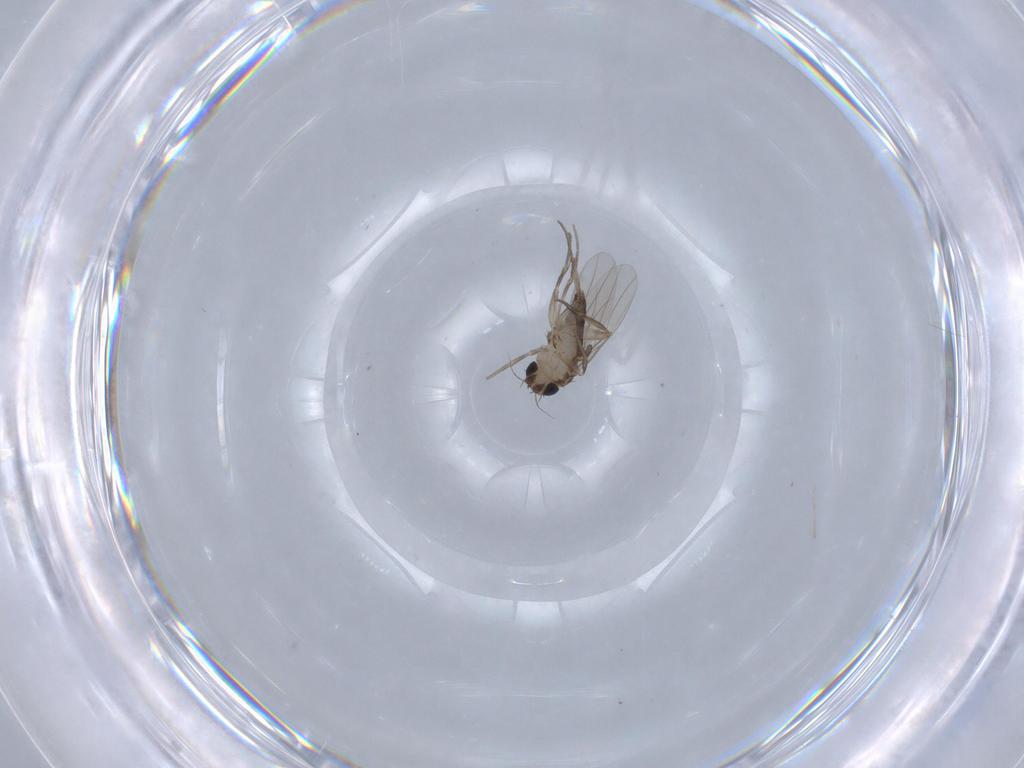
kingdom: Animalia
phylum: Arthropoda
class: Insecta
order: Diptera
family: Phoridae
